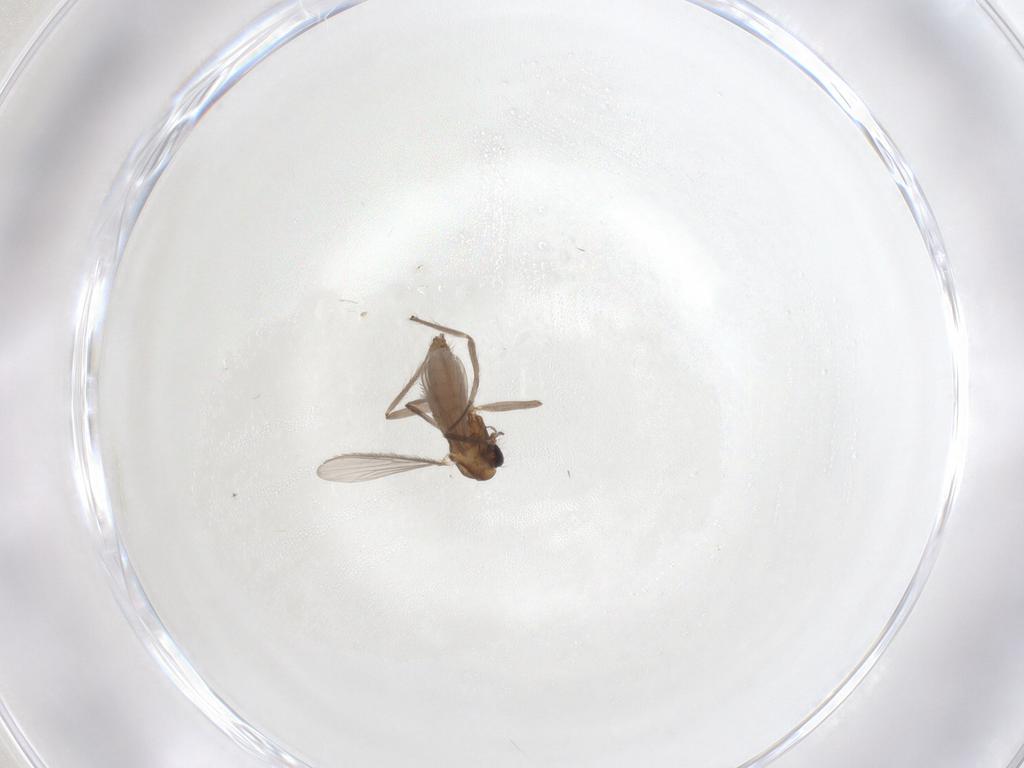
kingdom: Animalia
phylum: Arthropoda
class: Insecta
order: Diptera
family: Chironomidae
